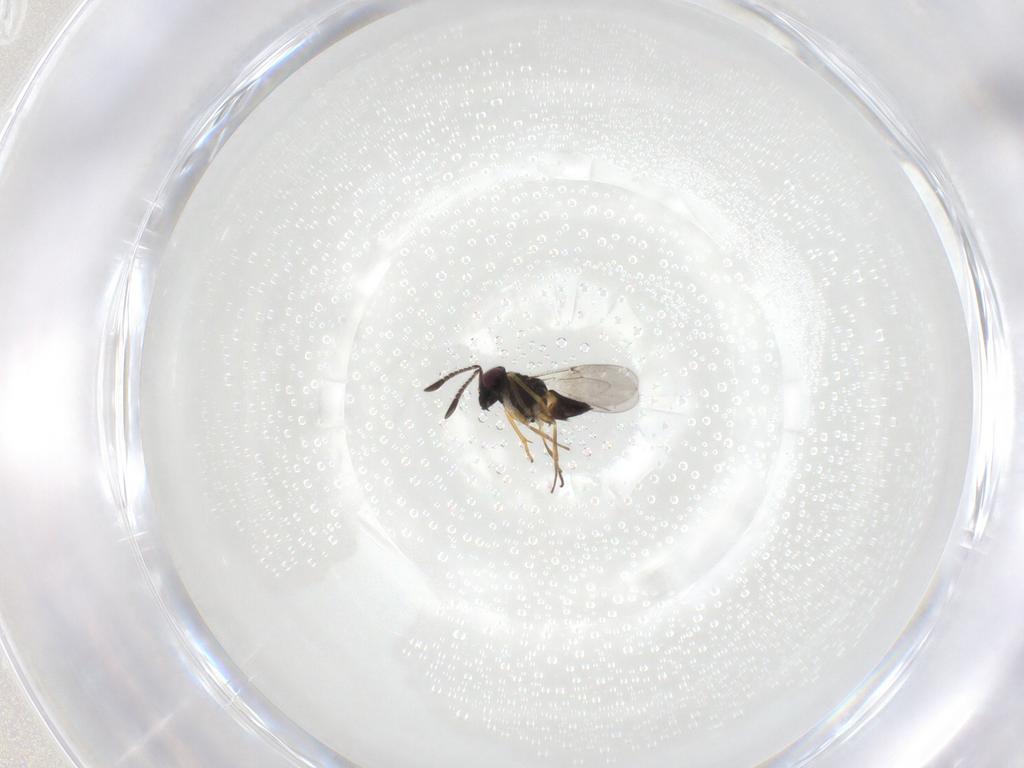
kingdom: Animalia
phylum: Arthropoda
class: Insecta
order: Hymenoptera
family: Encyrtidae
